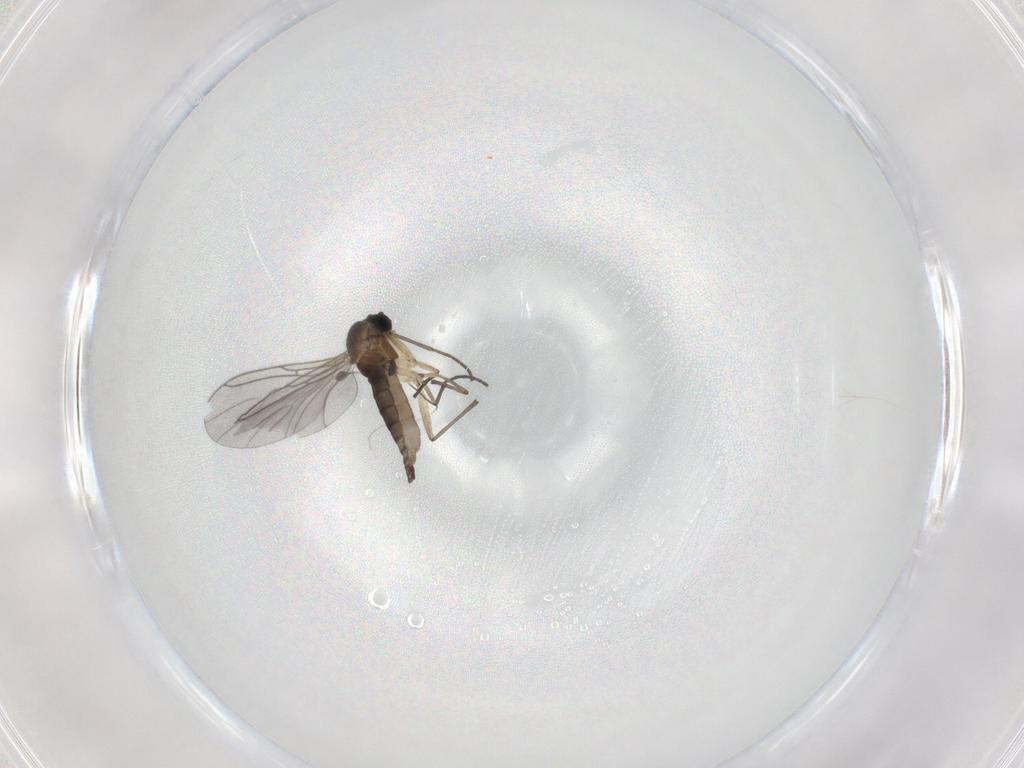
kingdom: Animalia
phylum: Arthropoda
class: Insecta
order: Diptera
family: Sciaridae
